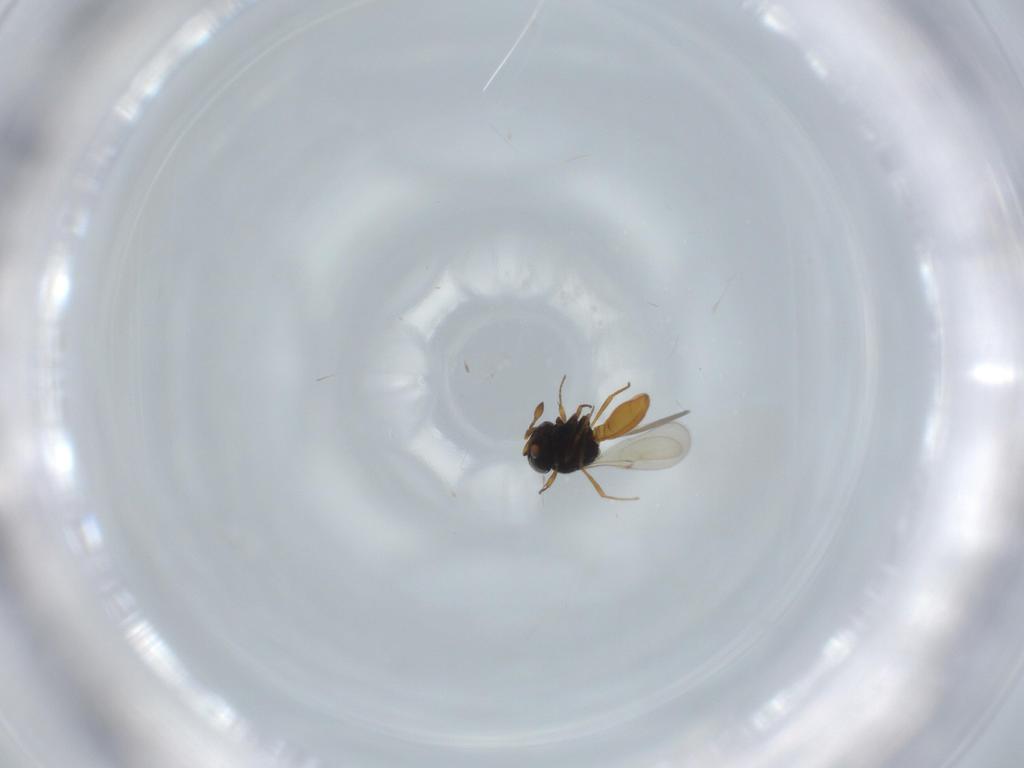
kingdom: Animalia
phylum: Arthropoda
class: Insecta
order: Hymenoptera
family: Scelionidae
